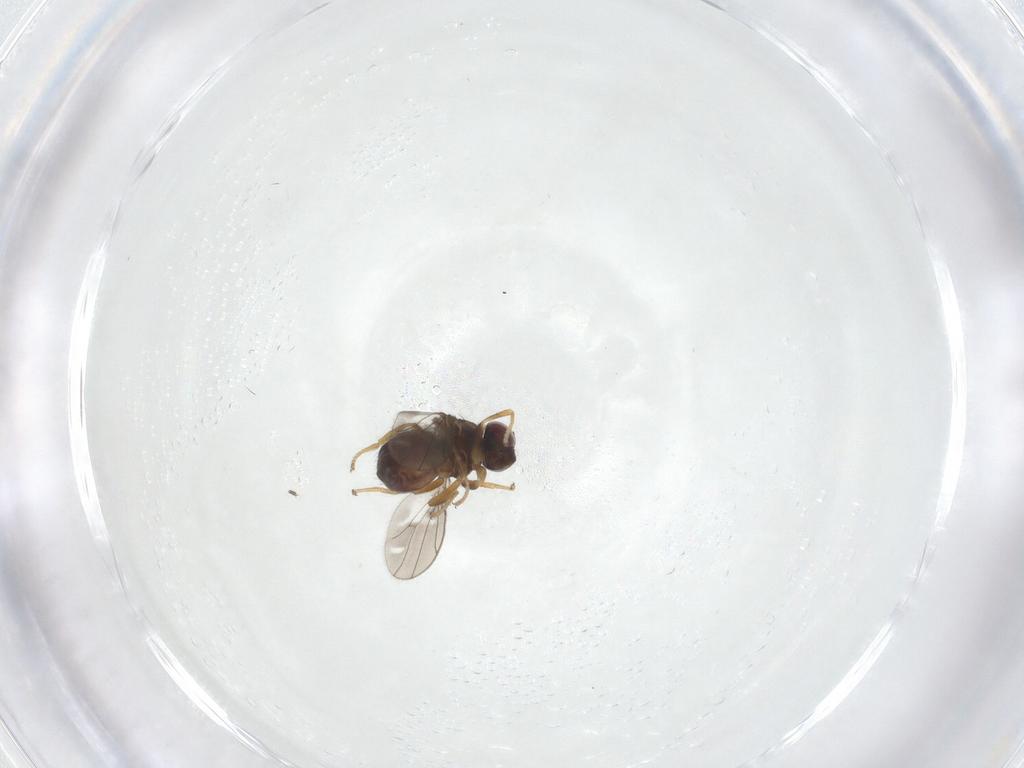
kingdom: Animalia
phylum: Arthropoda
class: Insecta
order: Diptera
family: Ephydridae
